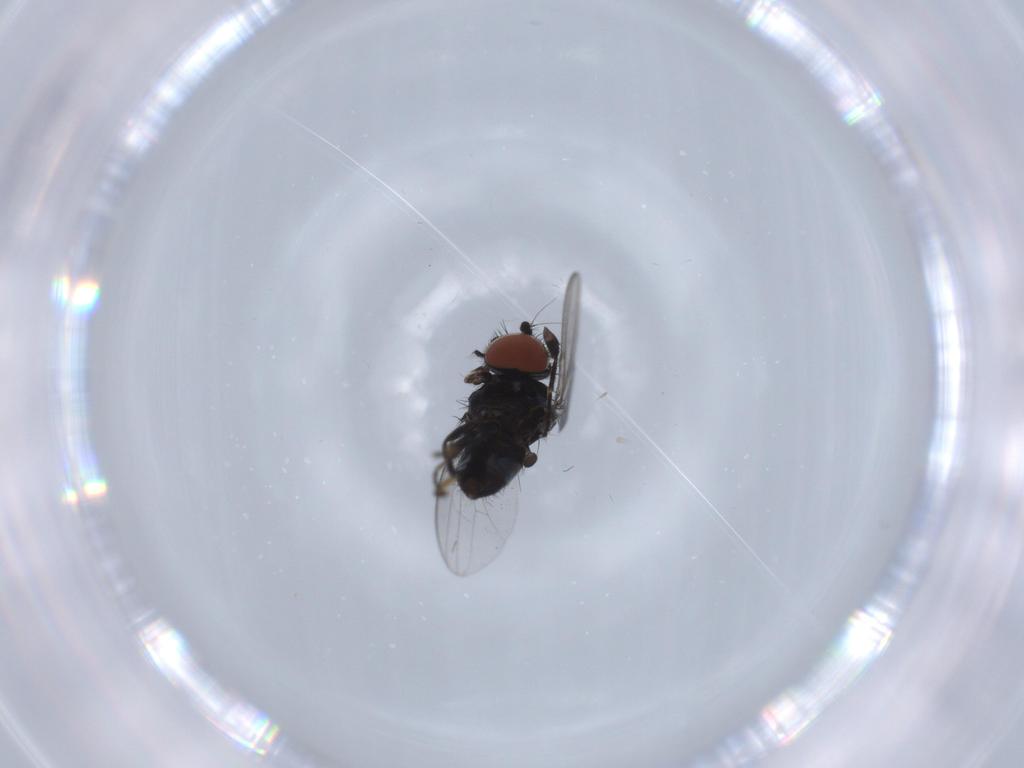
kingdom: Animalia
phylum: Arthropoda
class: Insecta
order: Diptera
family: Milichiidae
